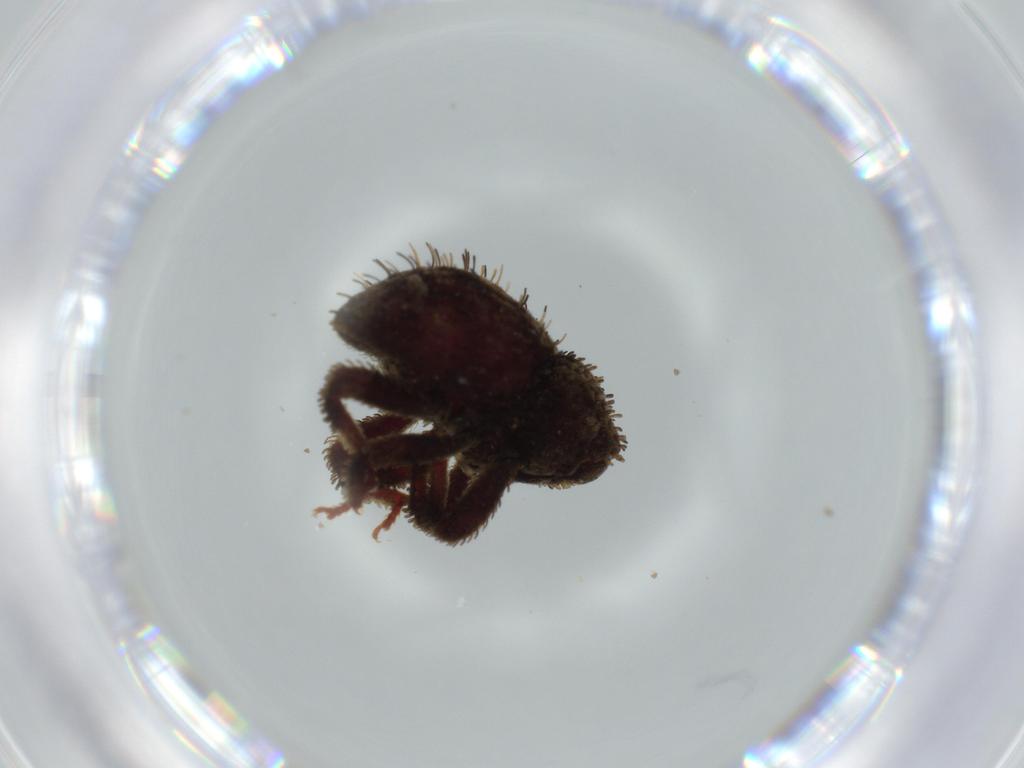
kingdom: Animalia
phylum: Arthropoda
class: Insecta
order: Coleoptera
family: Curculionidae
